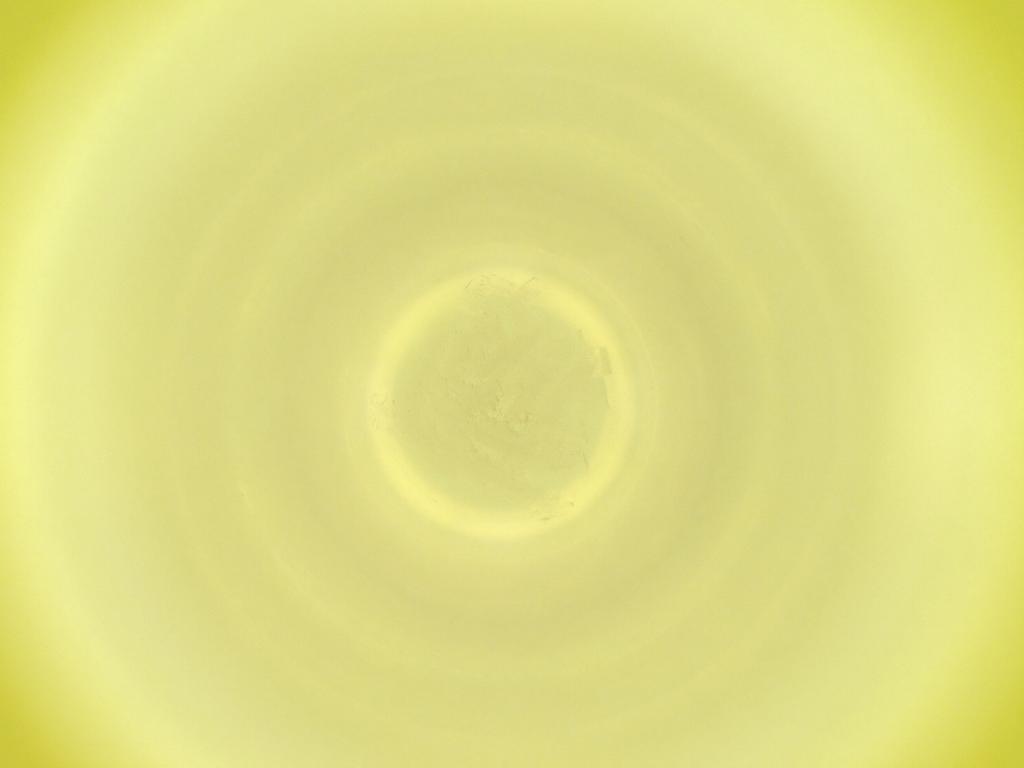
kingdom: Animalia
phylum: Arthropoda
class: Insecta
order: Diptera
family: Cecidomyiidae
